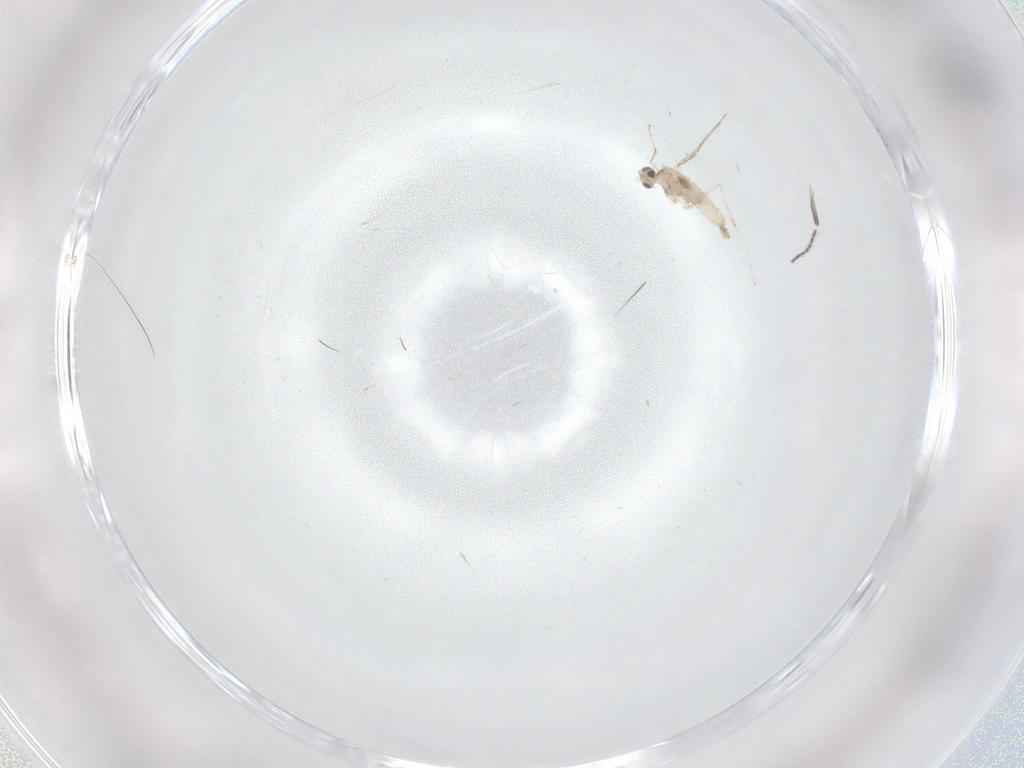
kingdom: Animalia
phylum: Arthropoda
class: Insecta
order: Diptera
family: Cecidomyiidae
